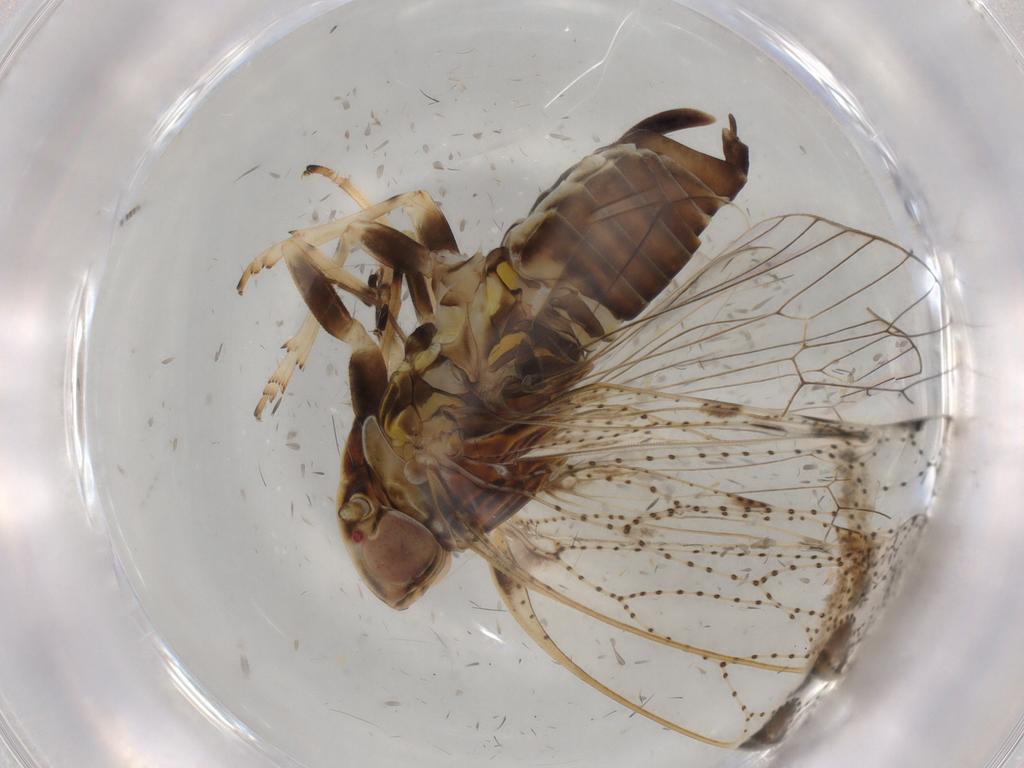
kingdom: Animalia
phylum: Arthropoda
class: Insecta
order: Hemiptera
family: Cixiidae
